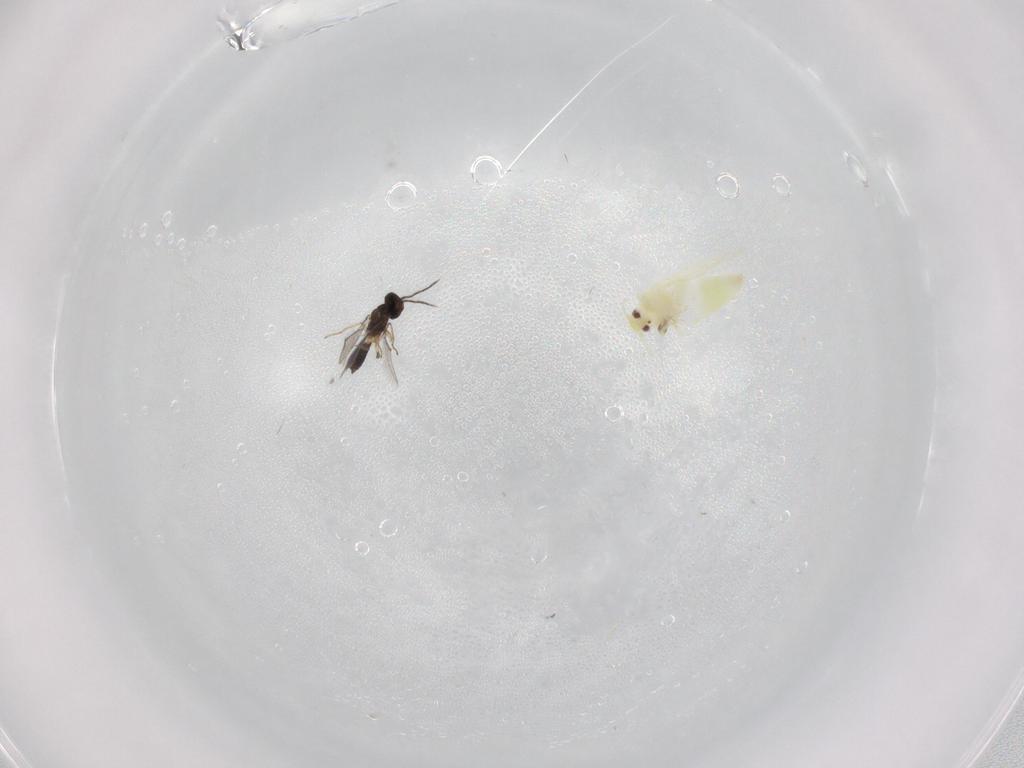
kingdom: Animalia
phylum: Arthropoda
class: Insecta
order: Hemiptera
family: Aleyrodidae
